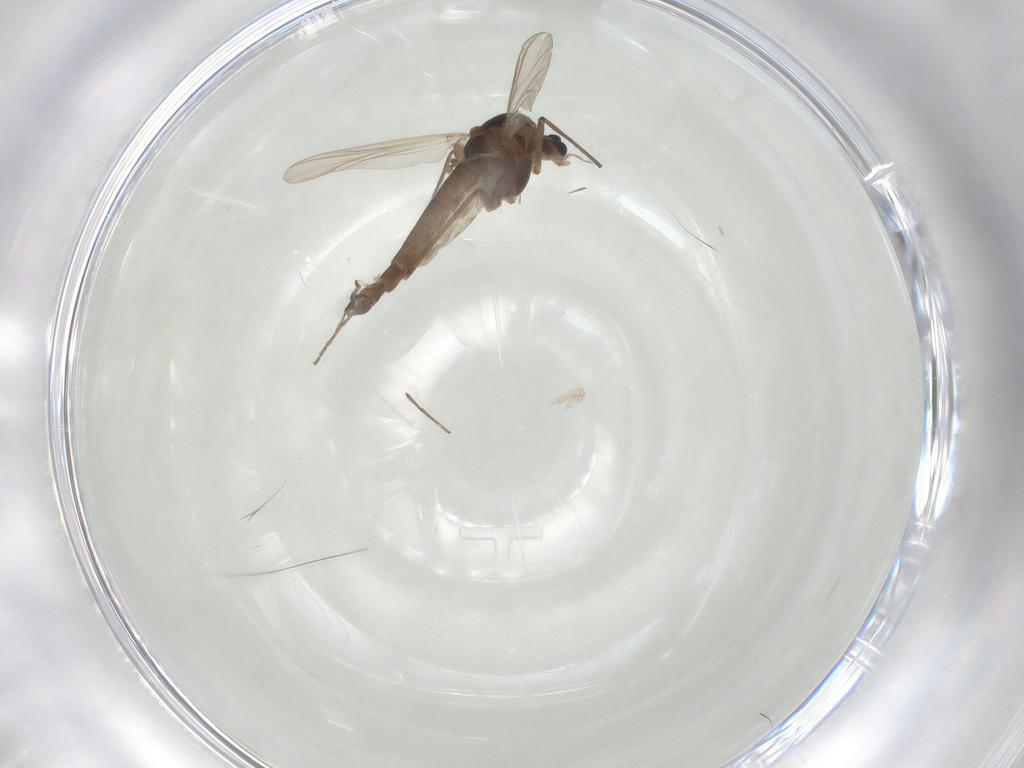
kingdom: Animalia
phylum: Arthropoda
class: Insecta
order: Diptera
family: Chironomidae
